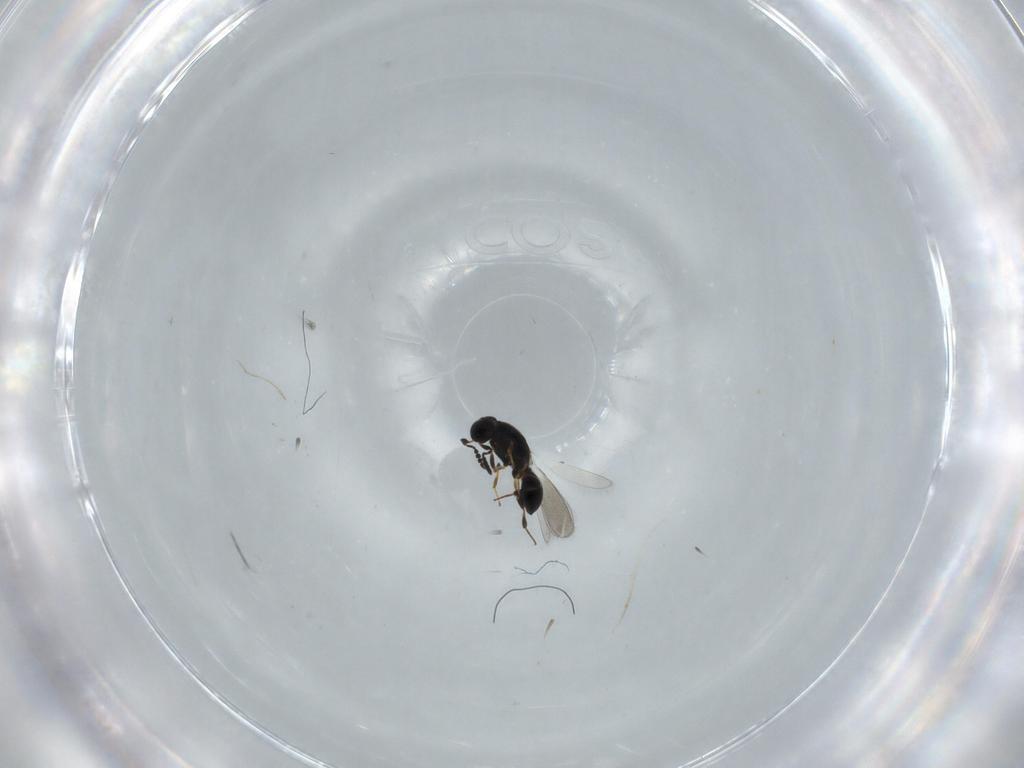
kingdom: Animalia
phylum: Arthropoda
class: Insecta
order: Hymenoptera
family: Platygastridae
